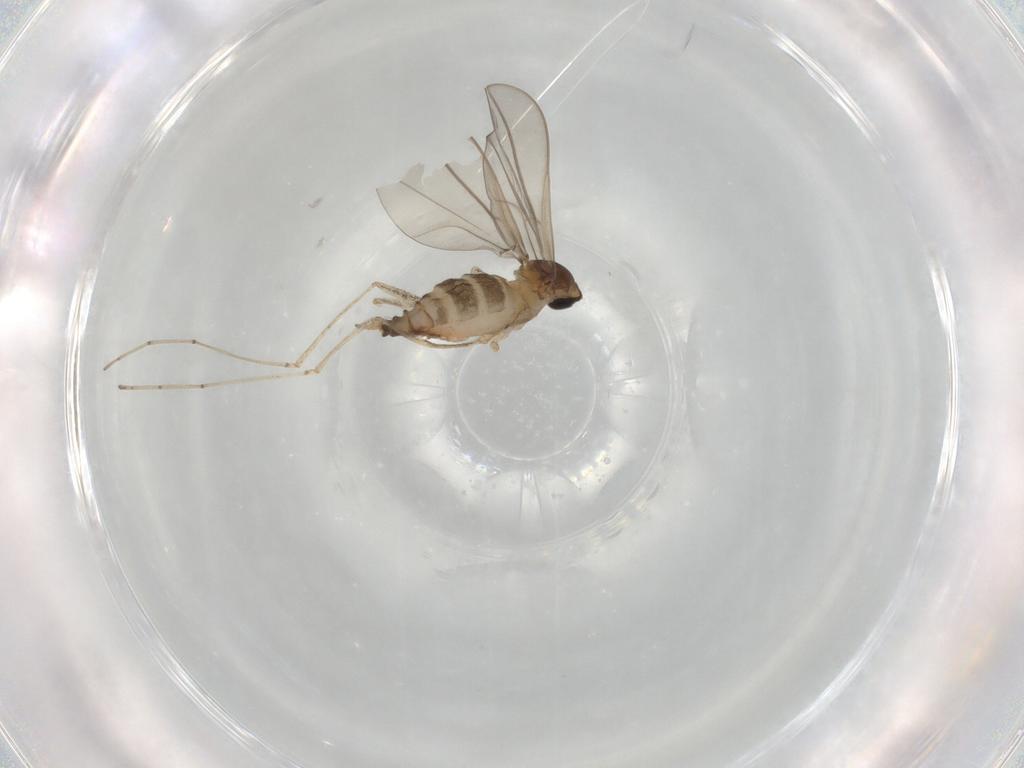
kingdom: Animalia
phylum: Arthropoda
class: Insecta
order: Diptera
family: Cecidomyiidae
